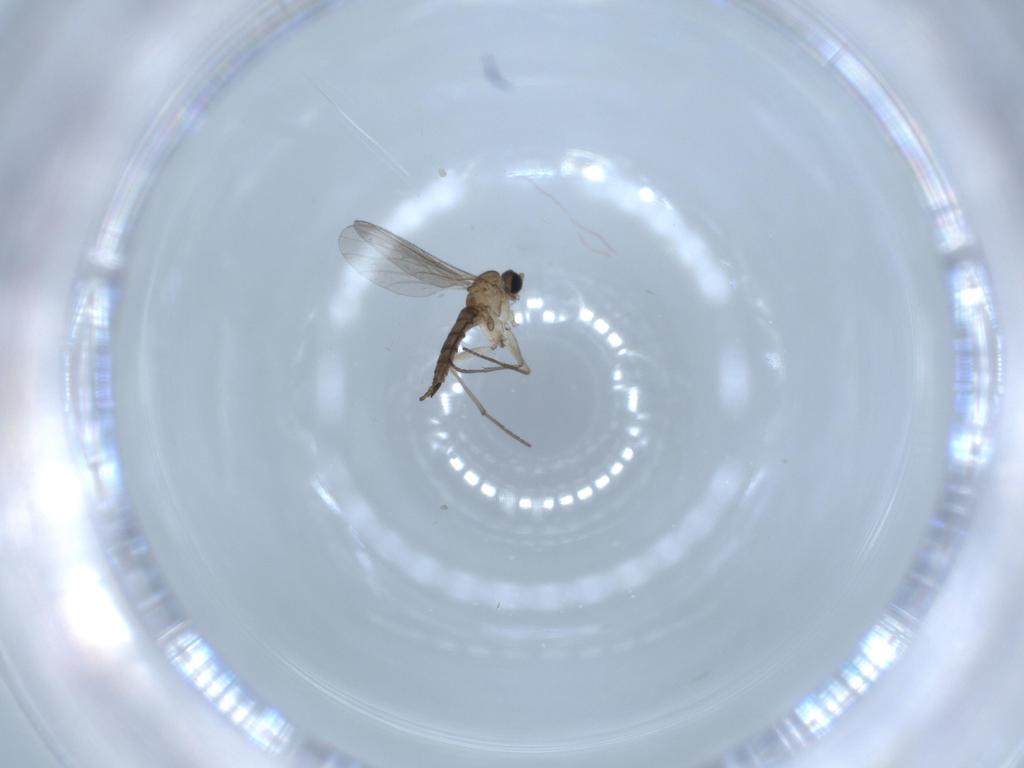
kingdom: Animalia
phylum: Arthropoda
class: Insecta
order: Diptera
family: Sciaridae
